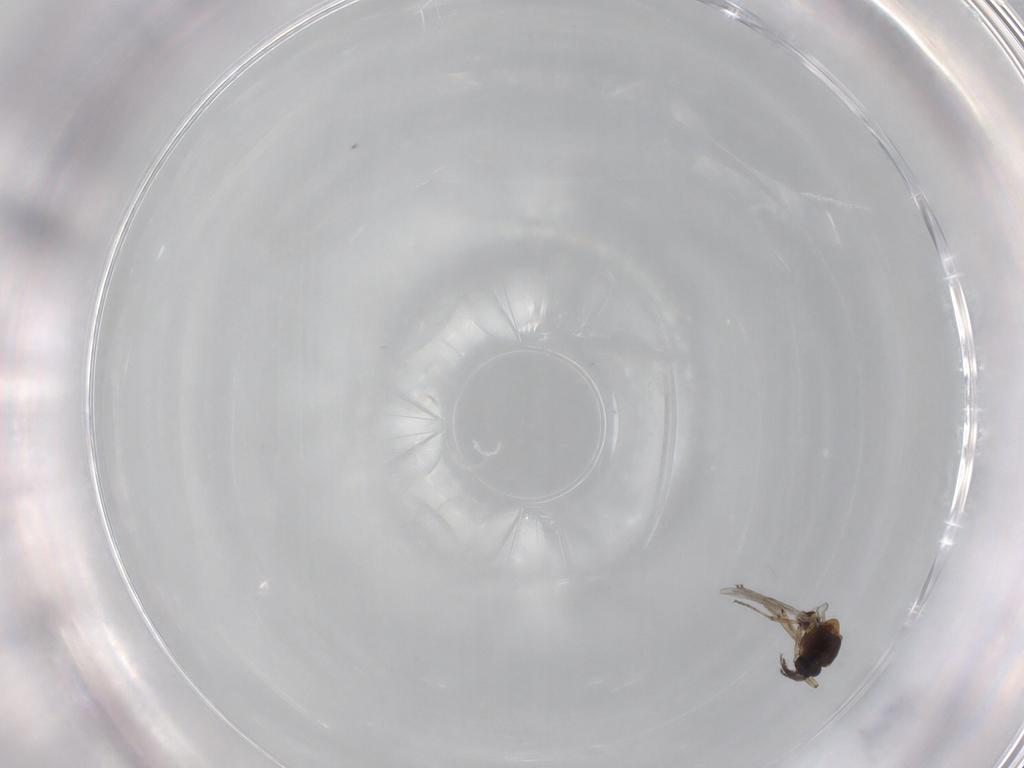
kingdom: Animalia
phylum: Arthropoda
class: Insecta
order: Diptera
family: Ceratopogonidae
